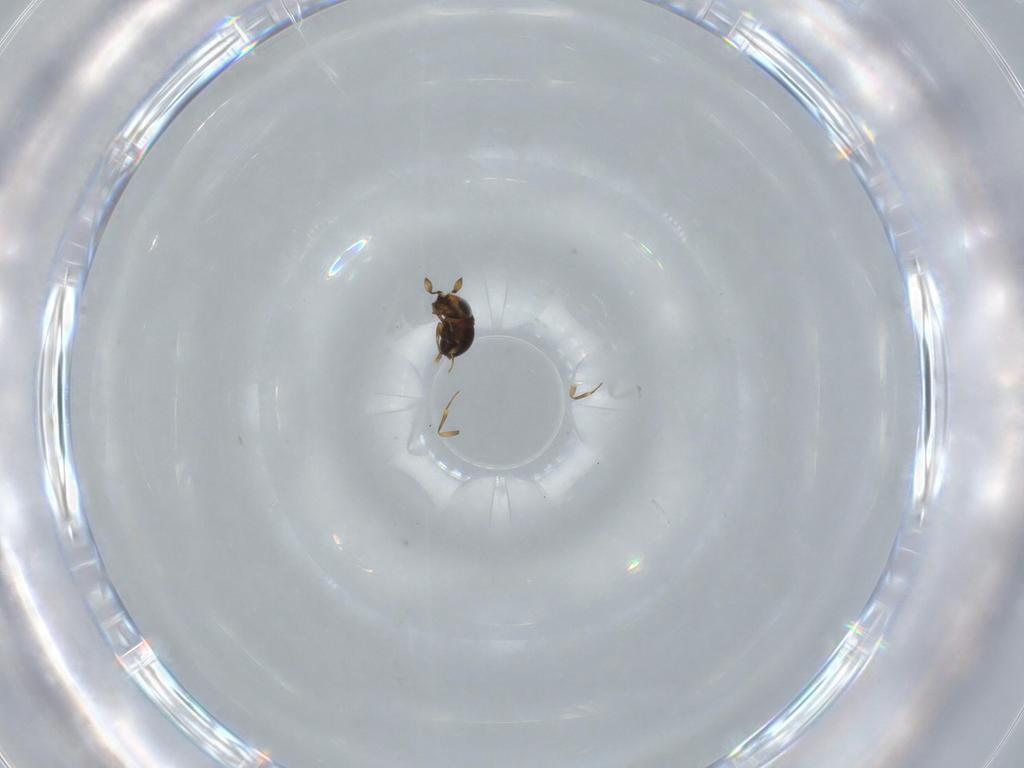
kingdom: Animalia
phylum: Arthropoda
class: Insecta
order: Hymenoptera
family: Scelionidae
